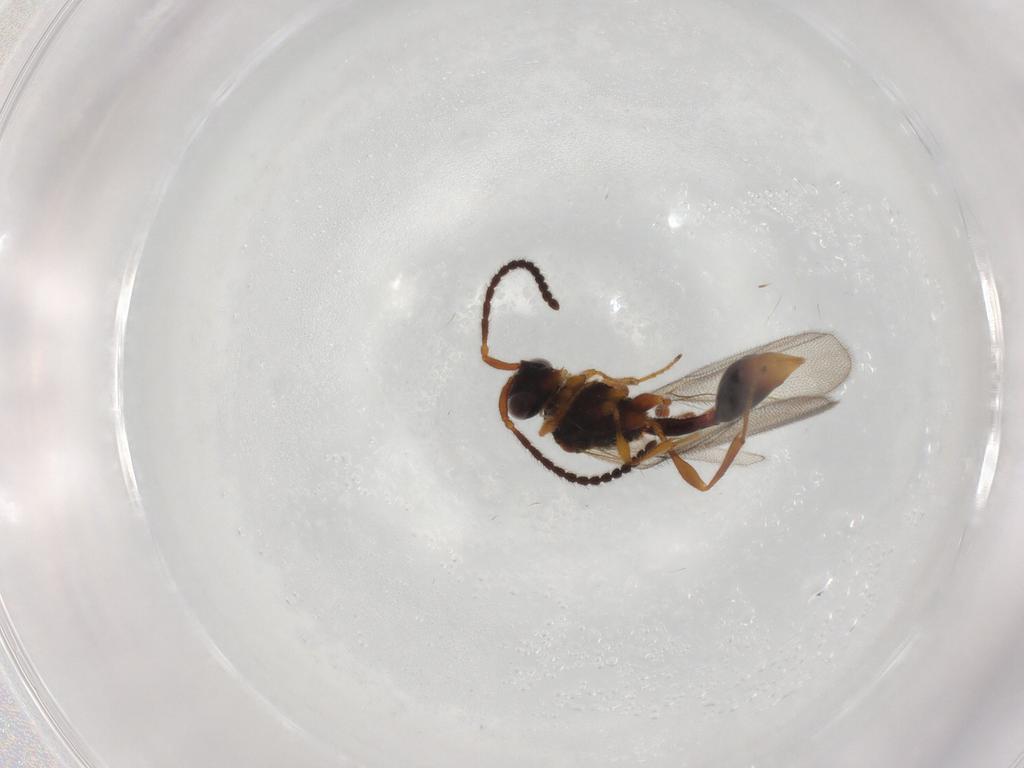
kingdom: Animalia
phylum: Arthropoda
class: Insecta
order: Hymenoptera
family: Diapriidae
